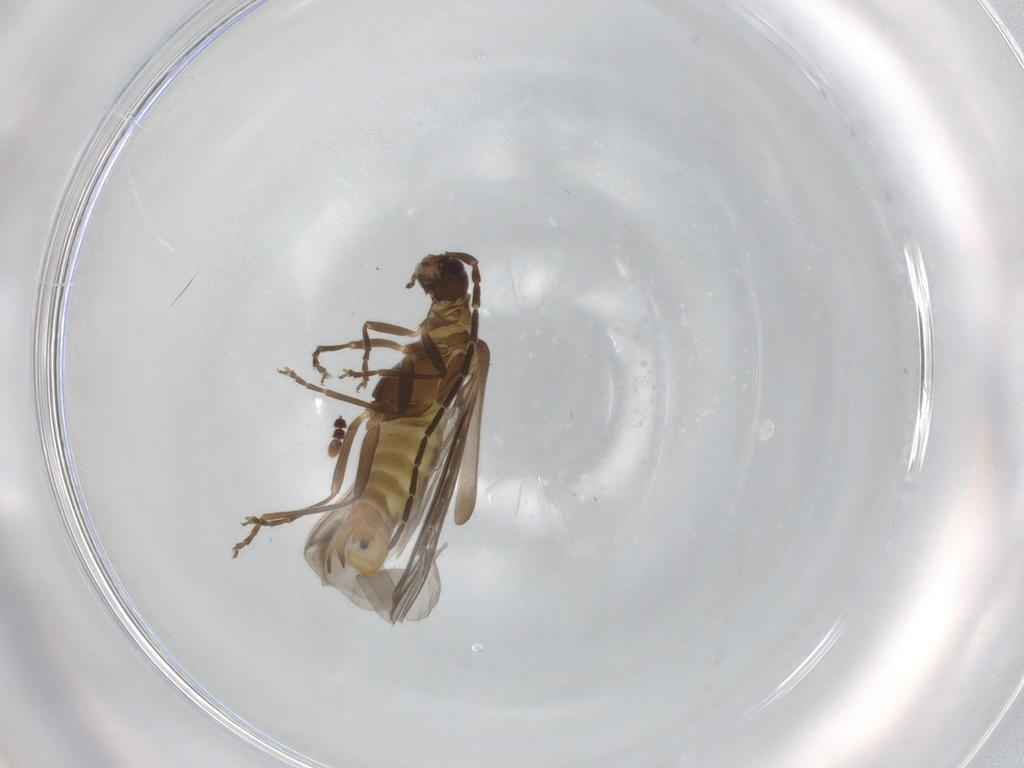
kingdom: Animalia
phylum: Arthropoda
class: Insecta
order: Coleoptera
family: Cantharidae
